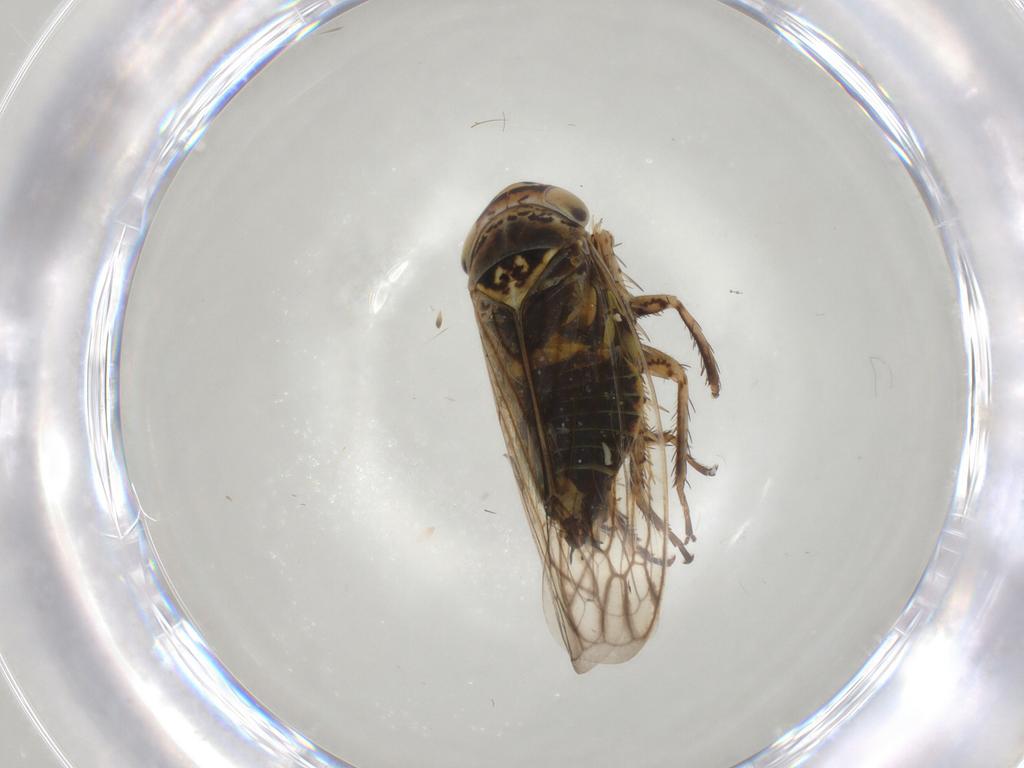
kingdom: Animalia
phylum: Arthropoda
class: Insecta
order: Hemiptera
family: Cicadellidae
